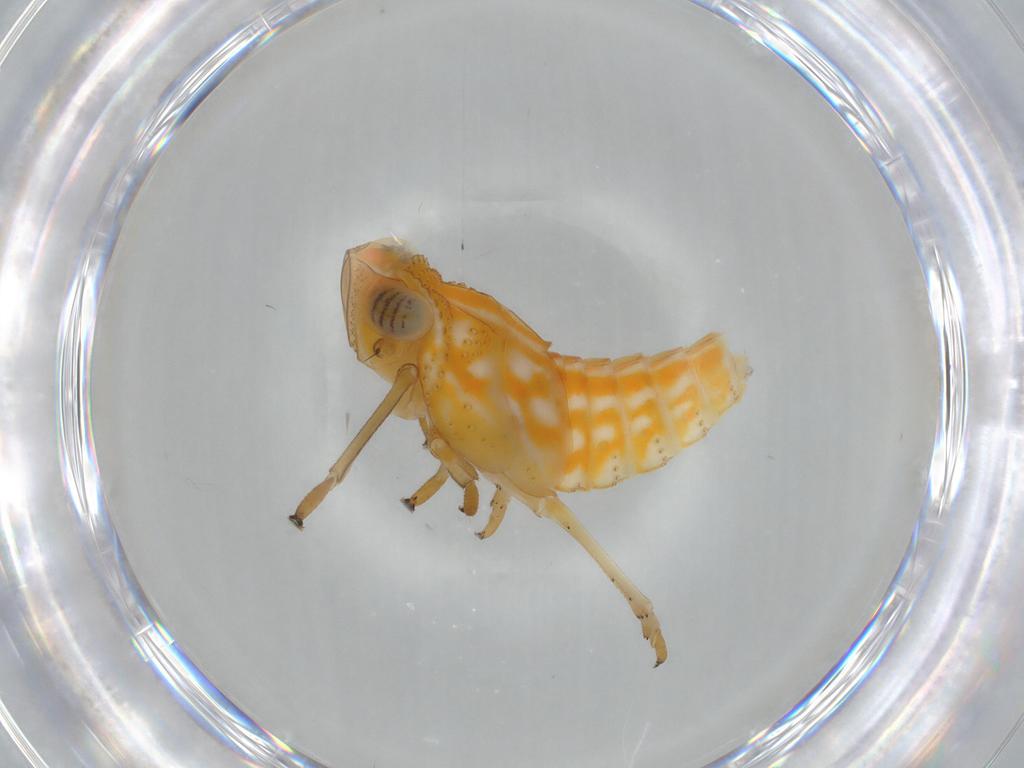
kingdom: Animalia
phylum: Arthropoda
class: Insecta
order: Hemiptera
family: Issidae
